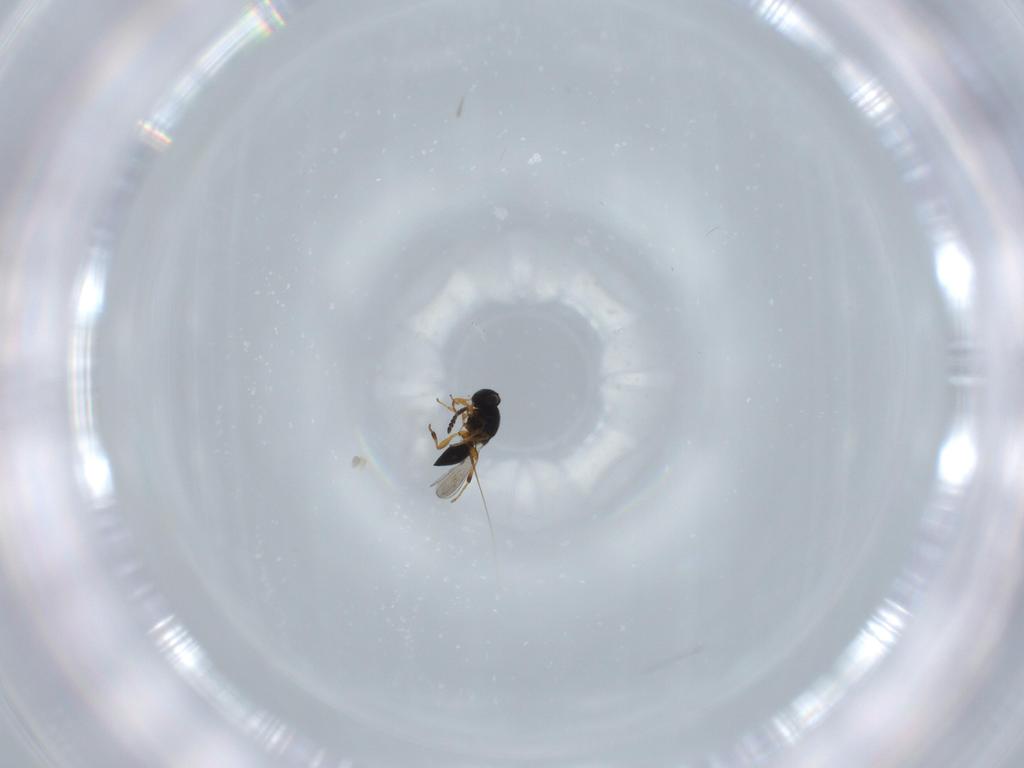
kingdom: Animalia
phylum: Arthropoda
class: Insecta
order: Hymenoptera
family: Platygastridae
